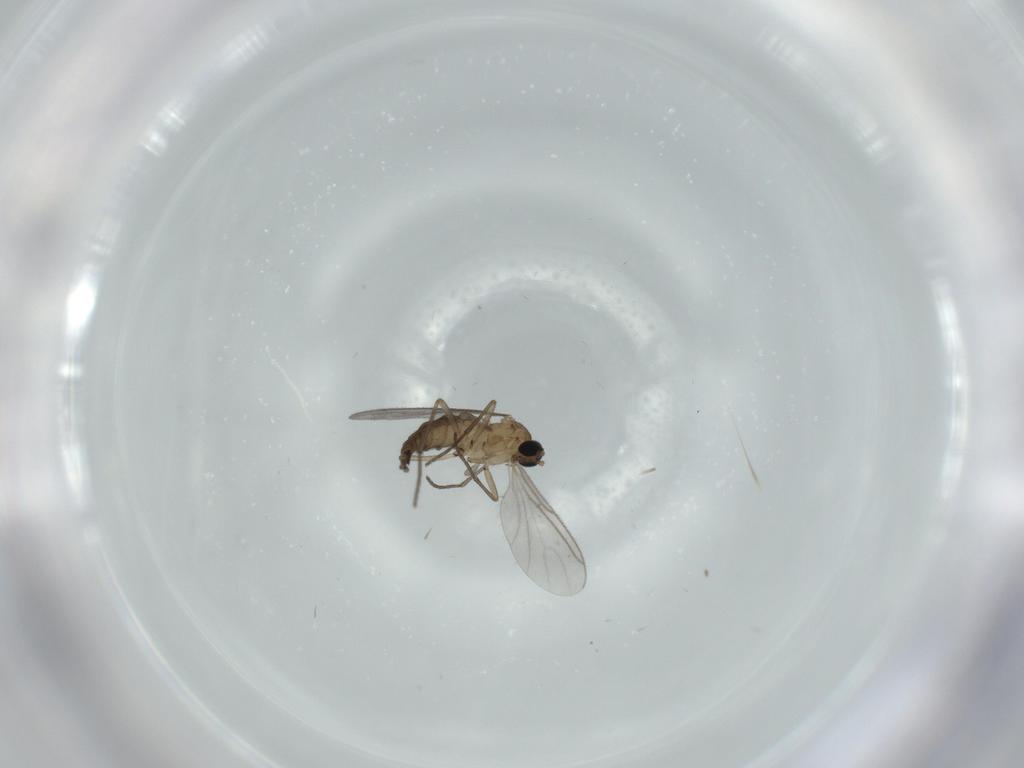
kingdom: Animalia
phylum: Arthropoda
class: Insecta
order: Diptera
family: Sciaridae
